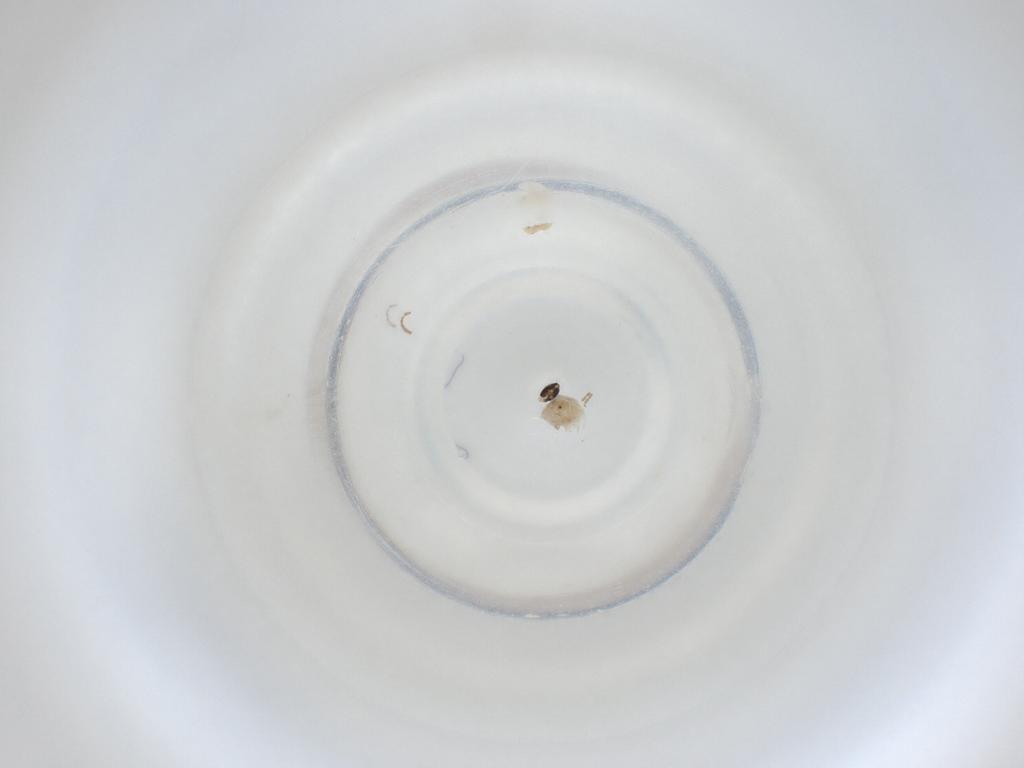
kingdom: Animalia
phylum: Arthropoda
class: Insecta
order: Diptera
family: Cecidomyiidae
